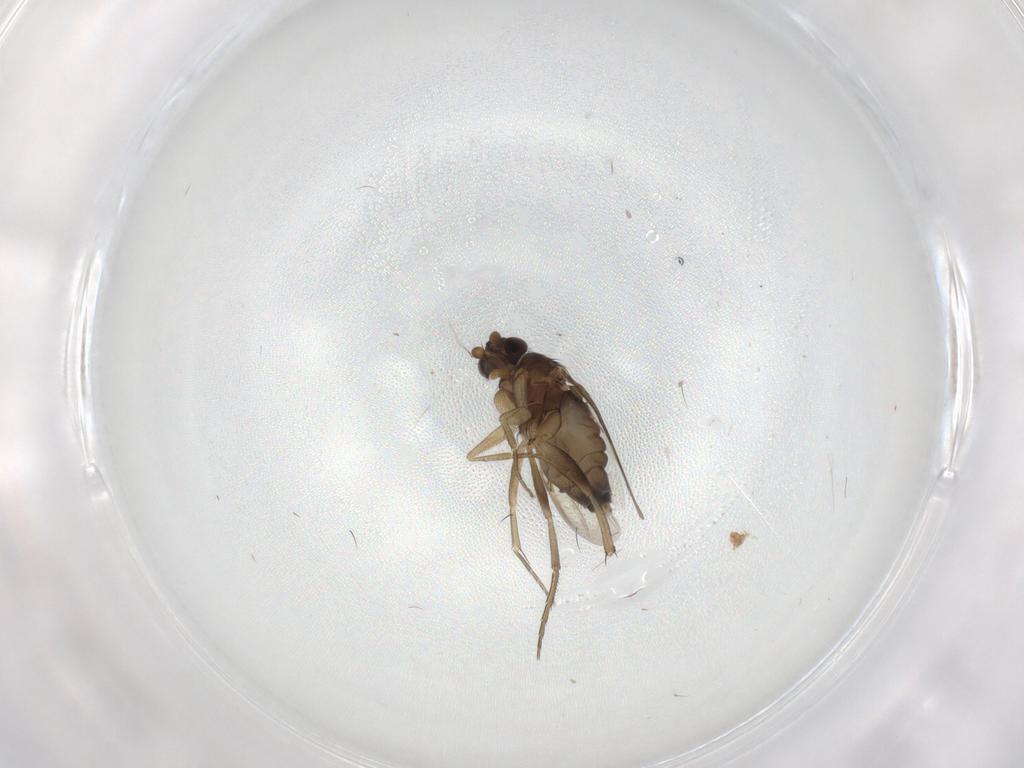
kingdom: Animalia
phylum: Arthropoda
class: Insecta
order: Diptera
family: Phoridae
